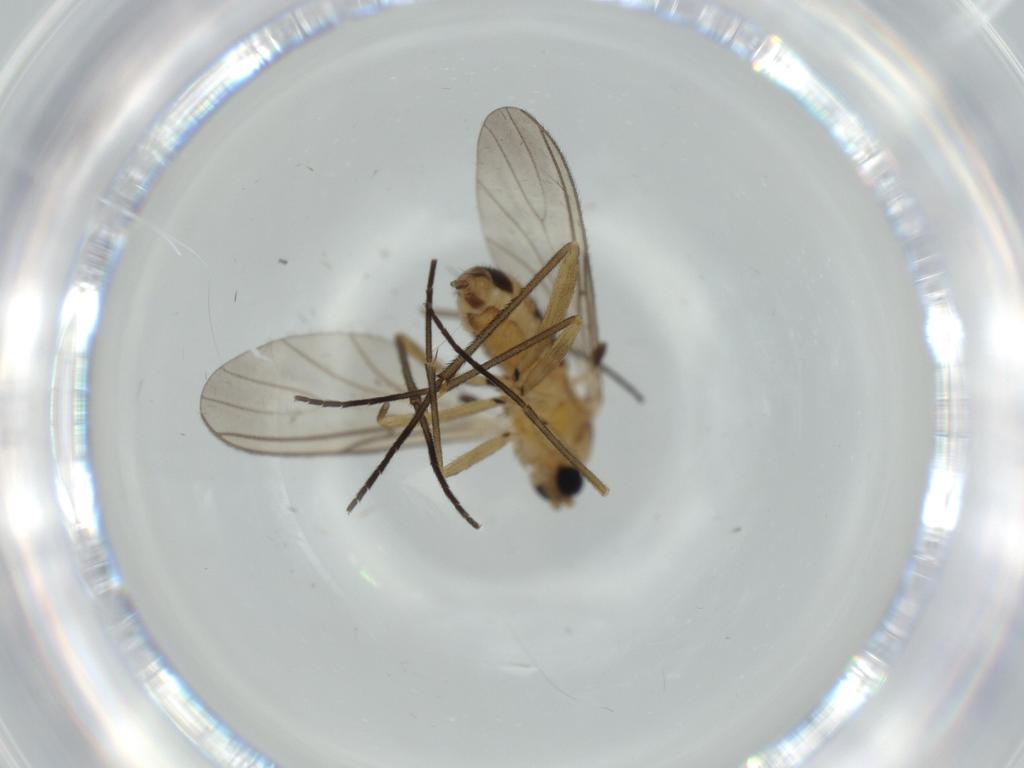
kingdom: Animalia
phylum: Arthropoda
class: Insecta
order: Diptera
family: Sciaridae
